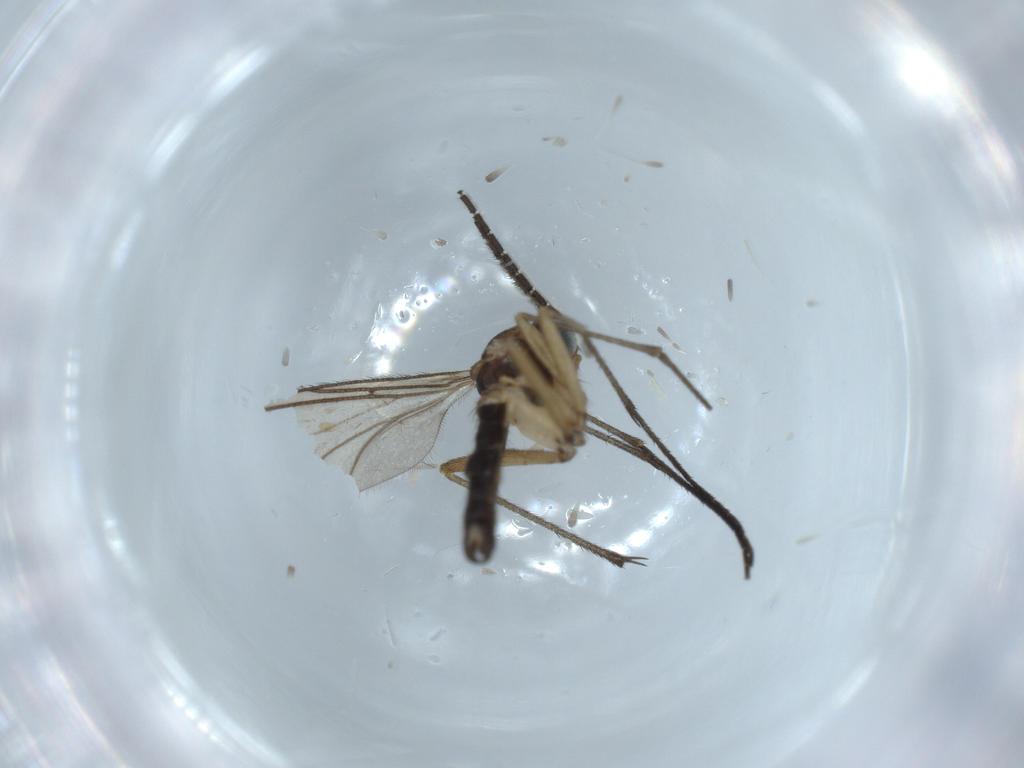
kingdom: Animalia
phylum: Arthropoda
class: Insecta
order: Diptera
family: Sciaridae
